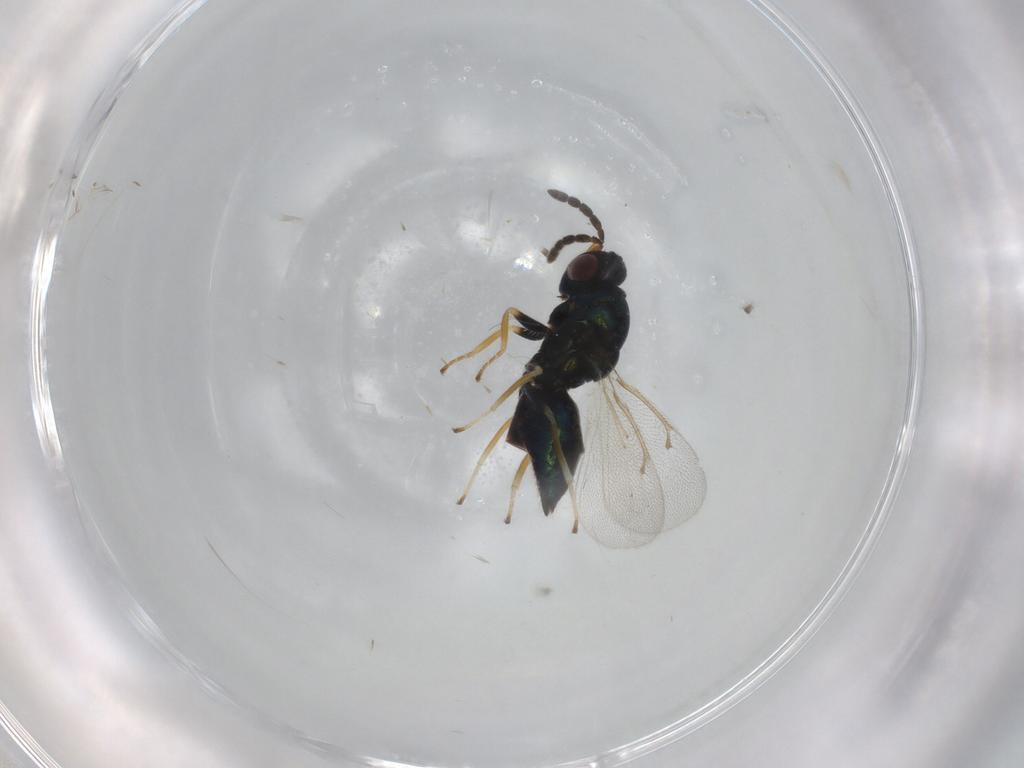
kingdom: Animalia
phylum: Arthropoda
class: Insecta
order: Hymenoptera
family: Eulophidae
